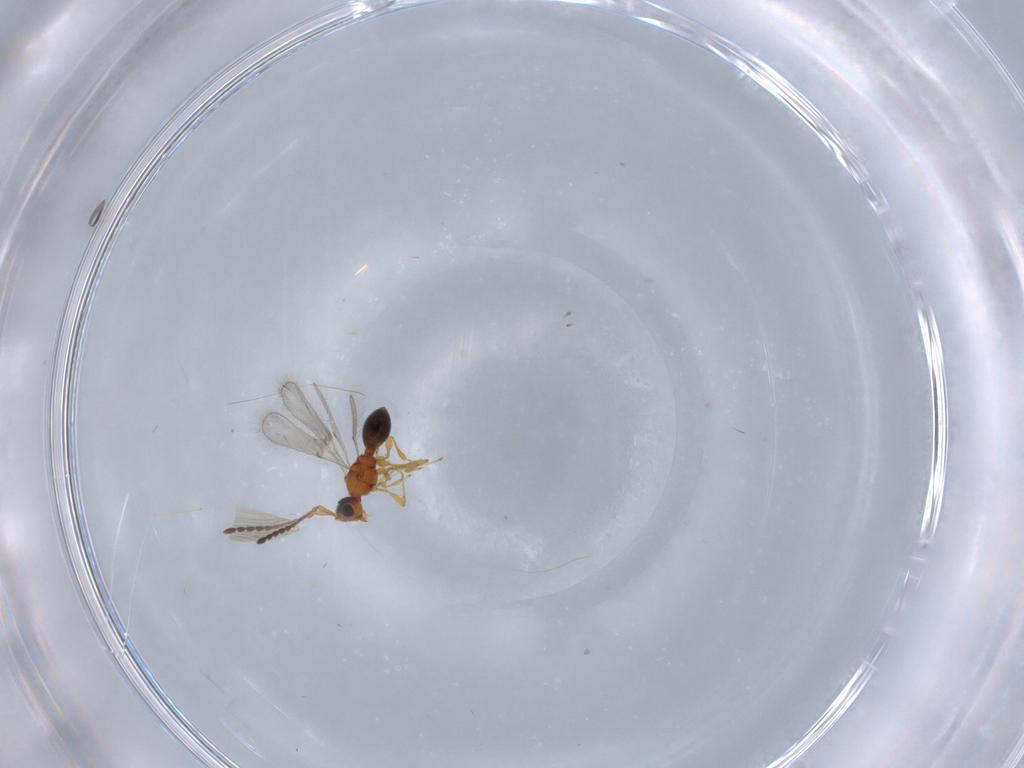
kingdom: Animalia
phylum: Arthropoda
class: Insecta
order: Hymenoptera
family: Diapriidae
